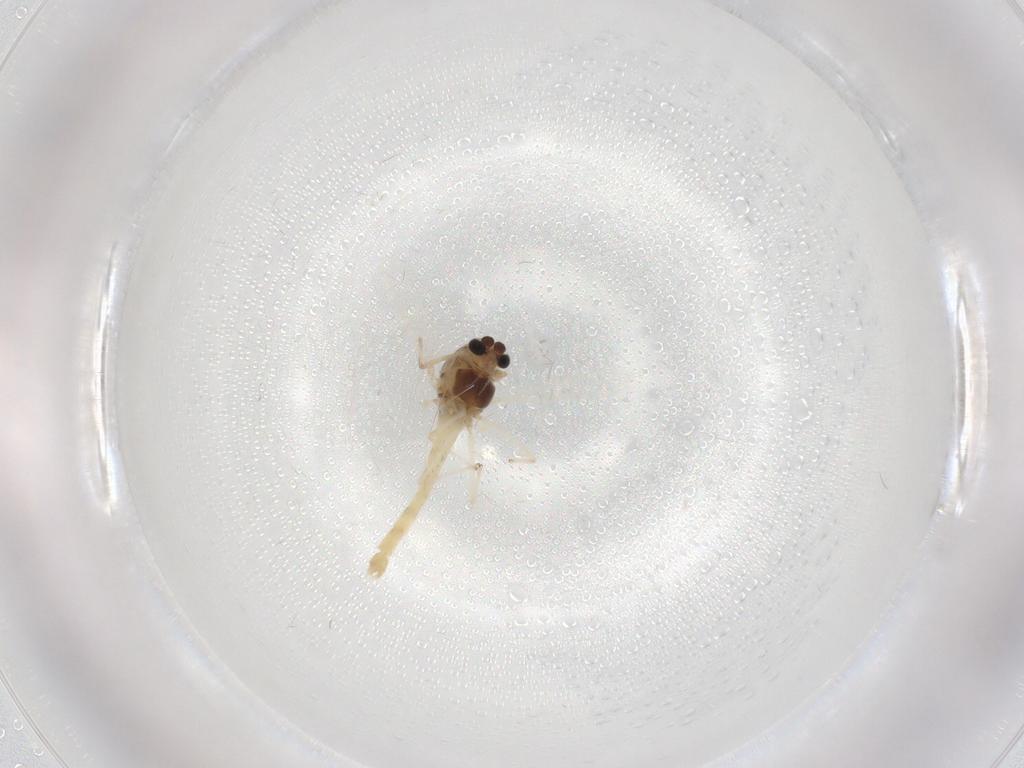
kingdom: Animalia
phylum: Arthropoda
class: Insecta
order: Diptera
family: Chironomidae
